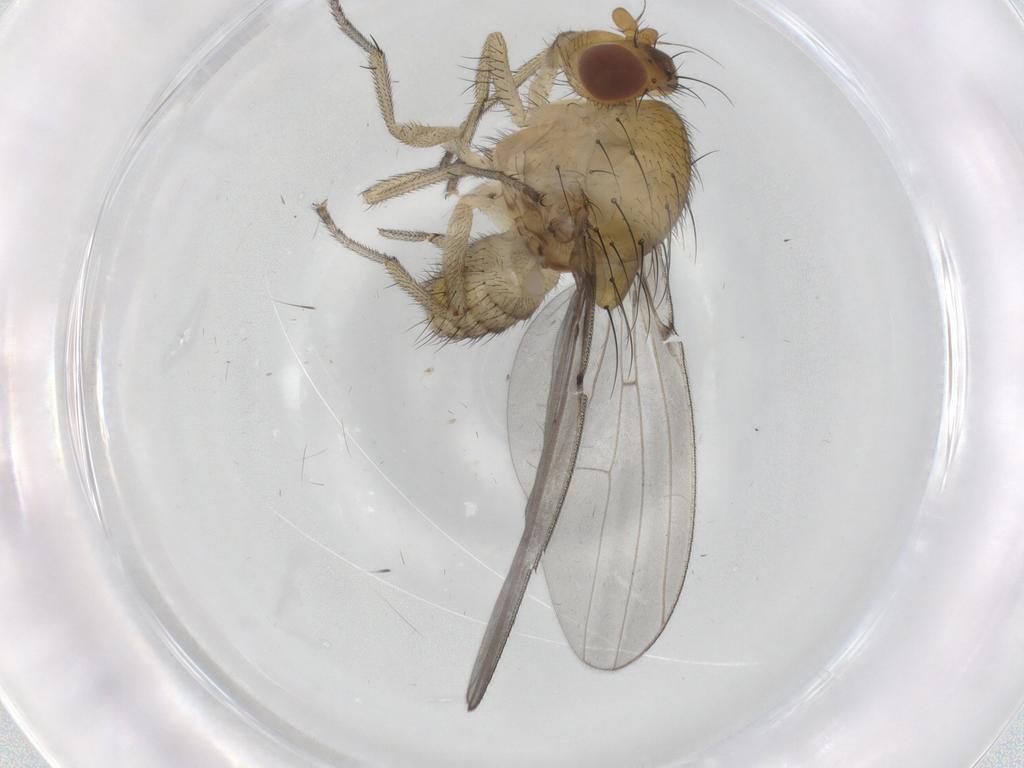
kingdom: Animalia
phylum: Arthropoda
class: Insecta
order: Diptera
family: Sciaridae
